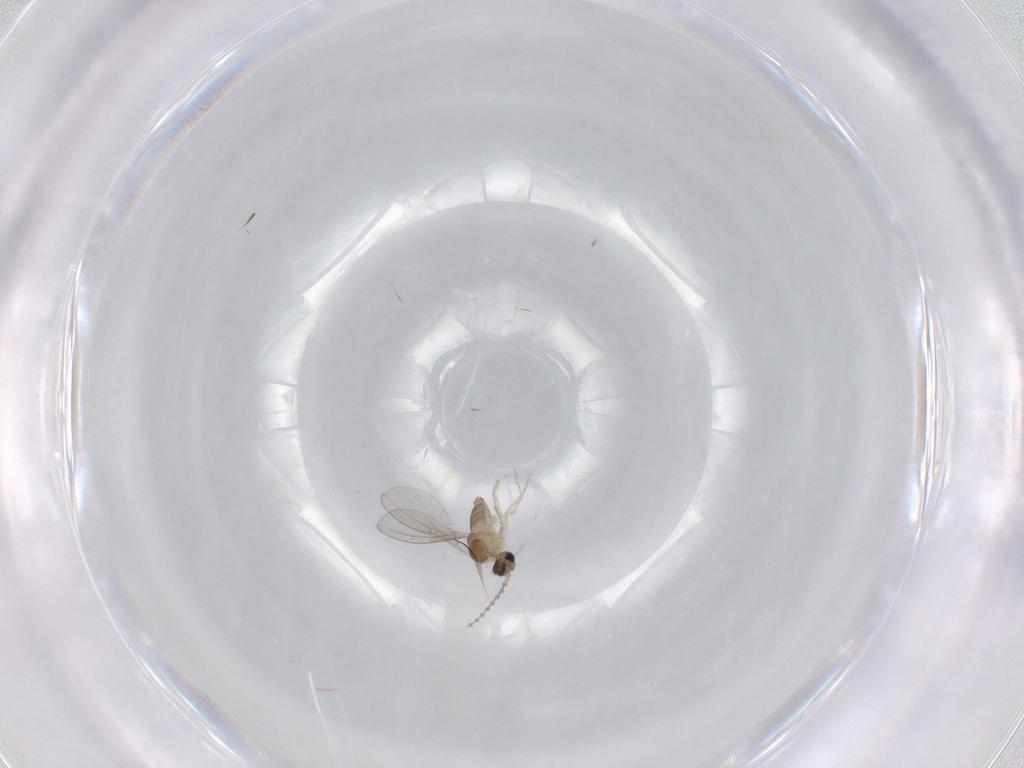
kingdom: Animalia
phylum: Arthropoda
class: Insecta
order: Diptera
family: Cecidomyiidae
